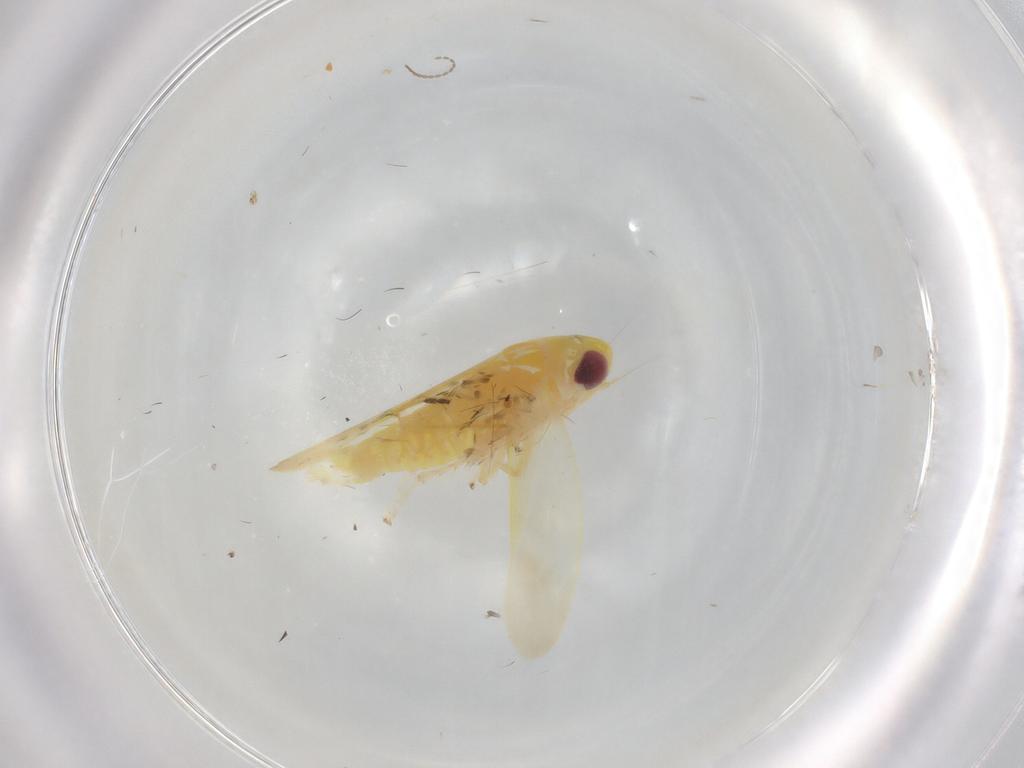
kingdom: Animalia
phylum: Arthropoda
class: Insecta
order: Hemiptera
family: Cicadellidae
